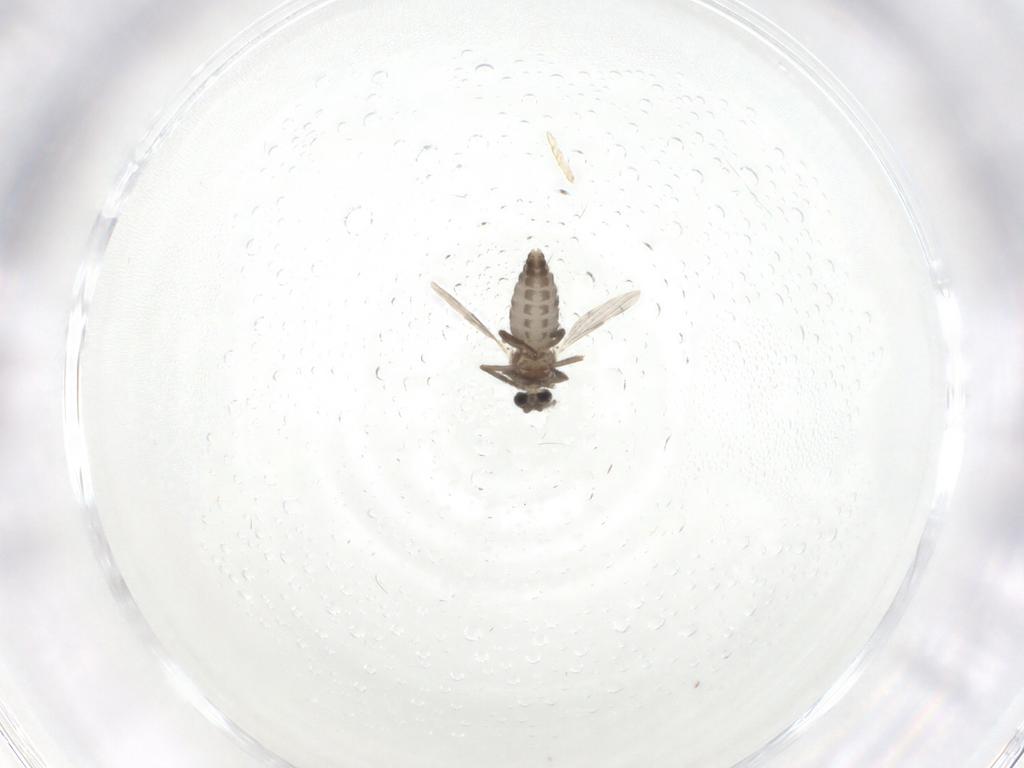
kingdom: Animalia
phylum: Arthropoda
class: Insecta
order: Diptera
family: Ceratopogonidae
